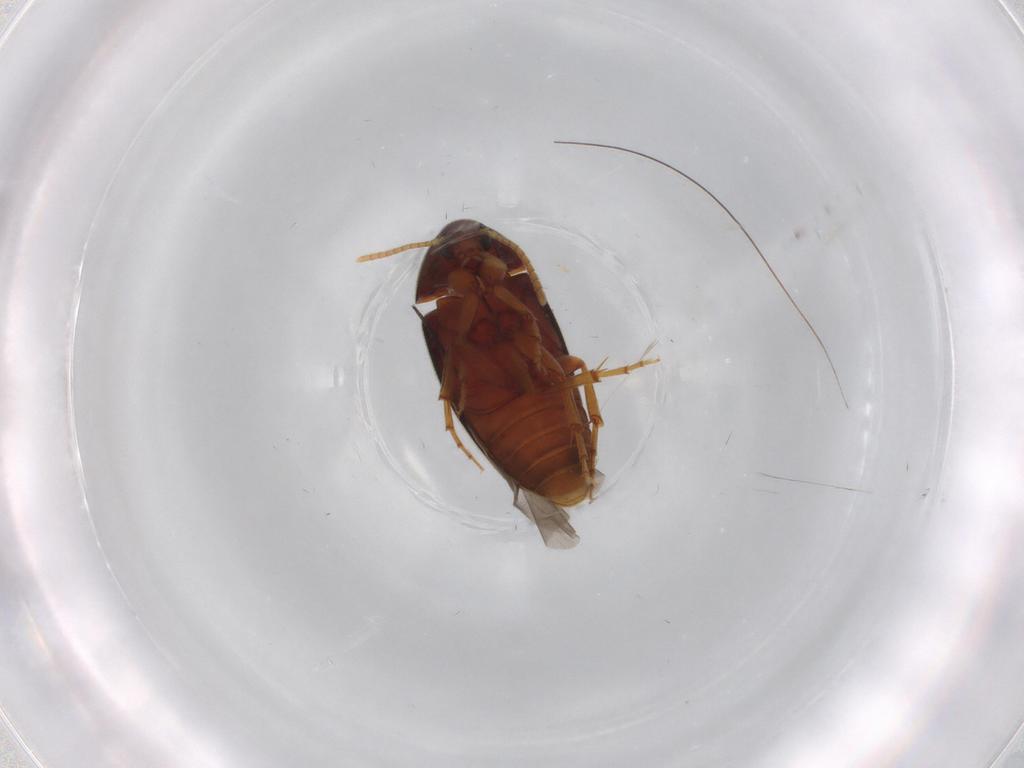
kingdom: Animalia
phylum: Arthropoda
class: Insecta
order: Coleoptera
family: Scraptiidae
